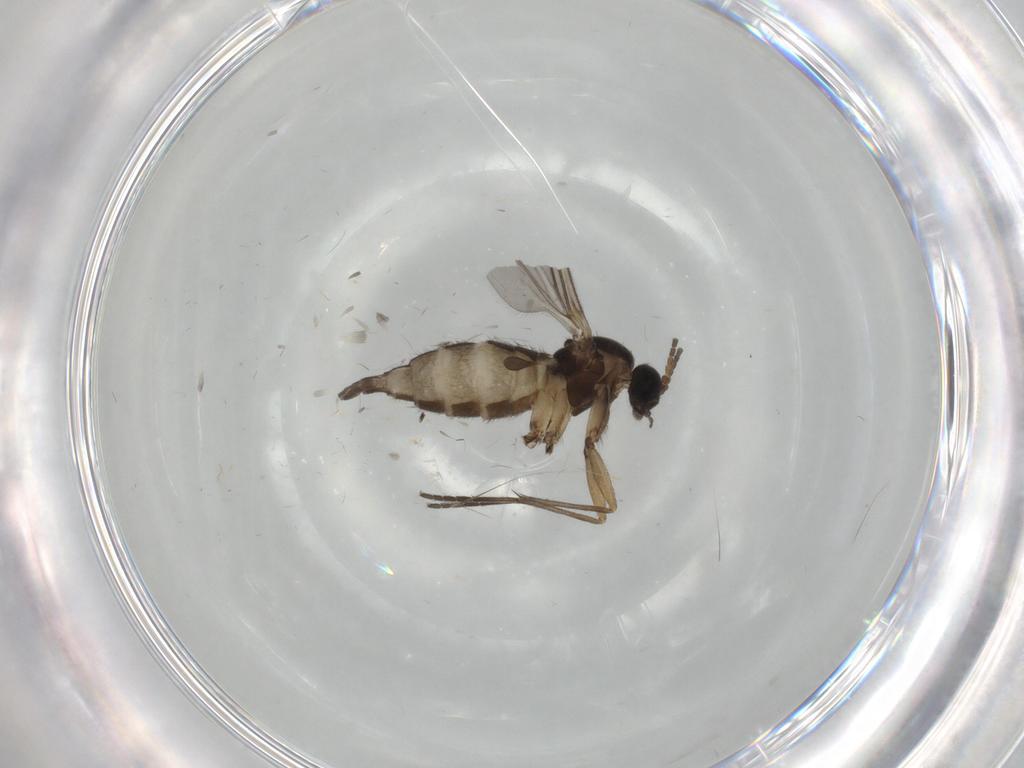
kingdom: Animalia
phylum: Arthropoda
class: Insecta
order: Diptera
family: Sciaridae
